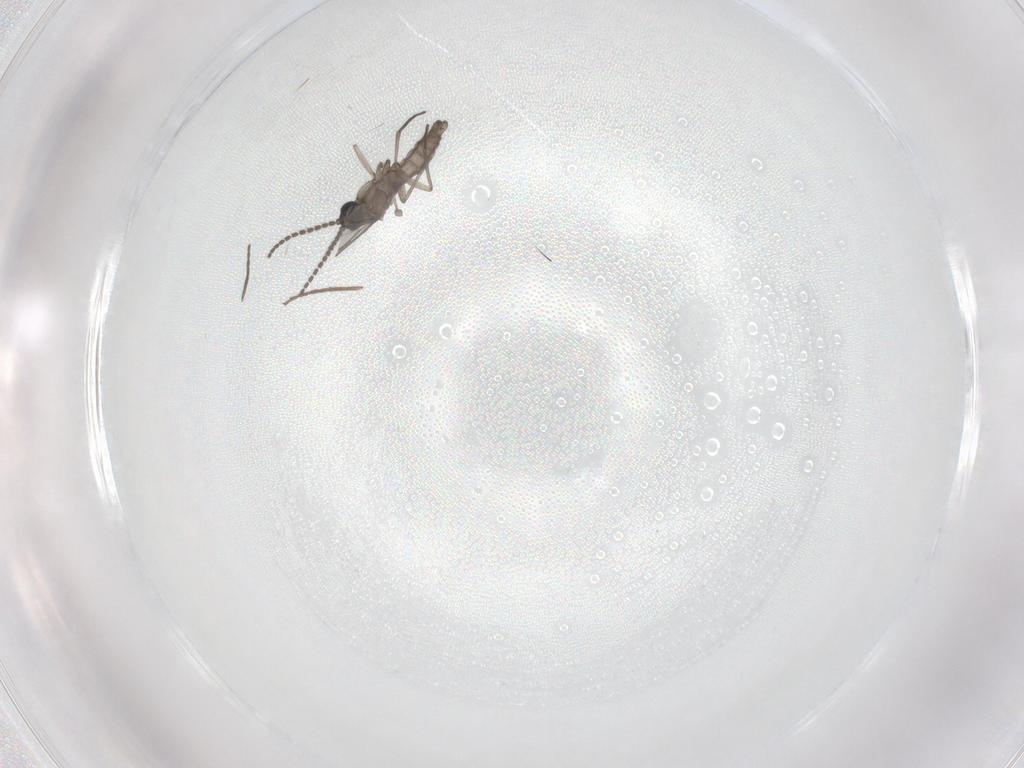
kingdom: Animalia
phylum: Arthropoda
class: Insecta
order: Diptera
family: Chironomidae
